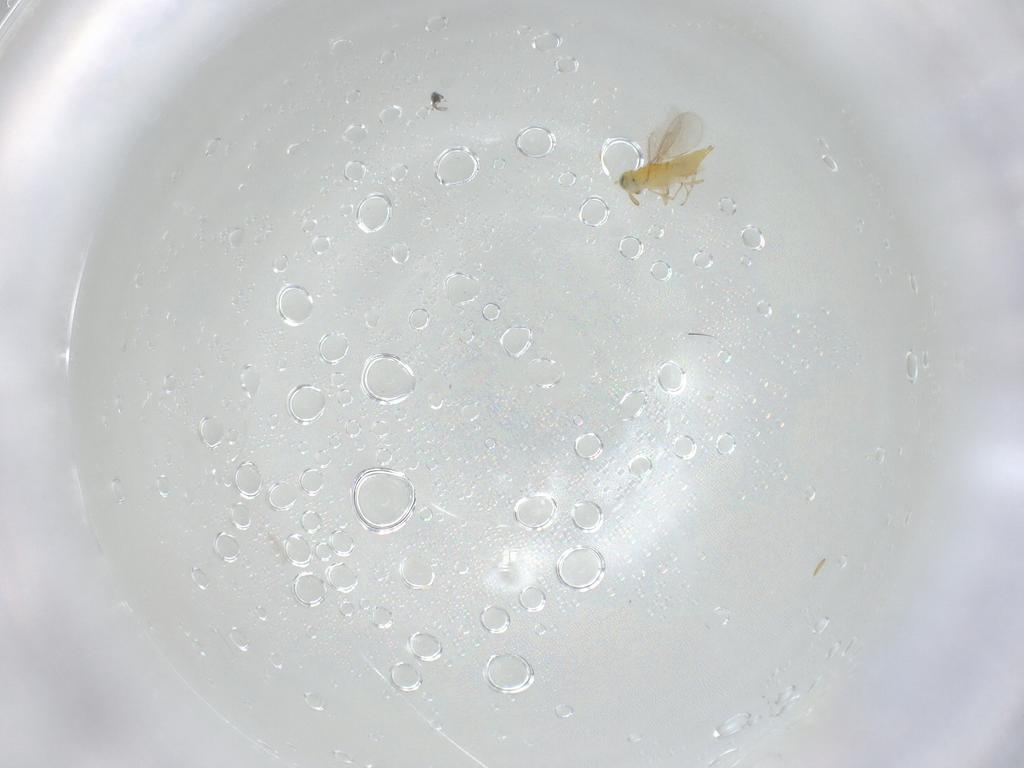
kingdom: Animalia
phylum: Arthropoda
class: Insecta
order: Hymenoptera
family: Aphelinidae
